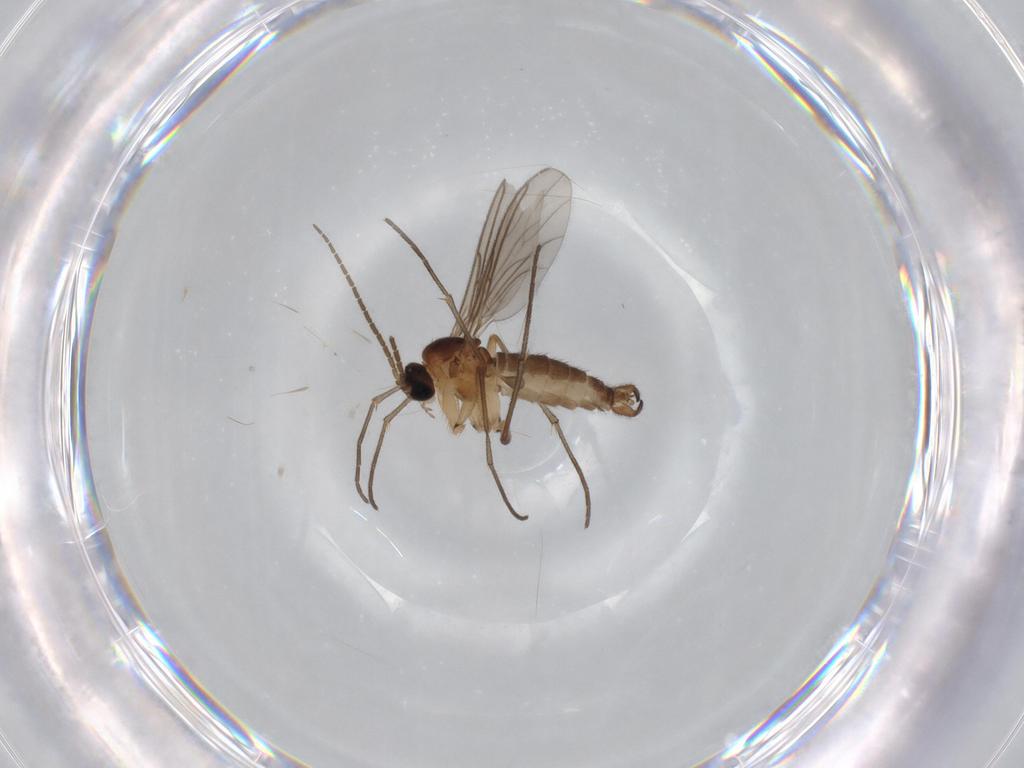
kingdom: Animalia
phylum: Arthropoda
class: Insecta
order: Diptera
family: Sciaridae
